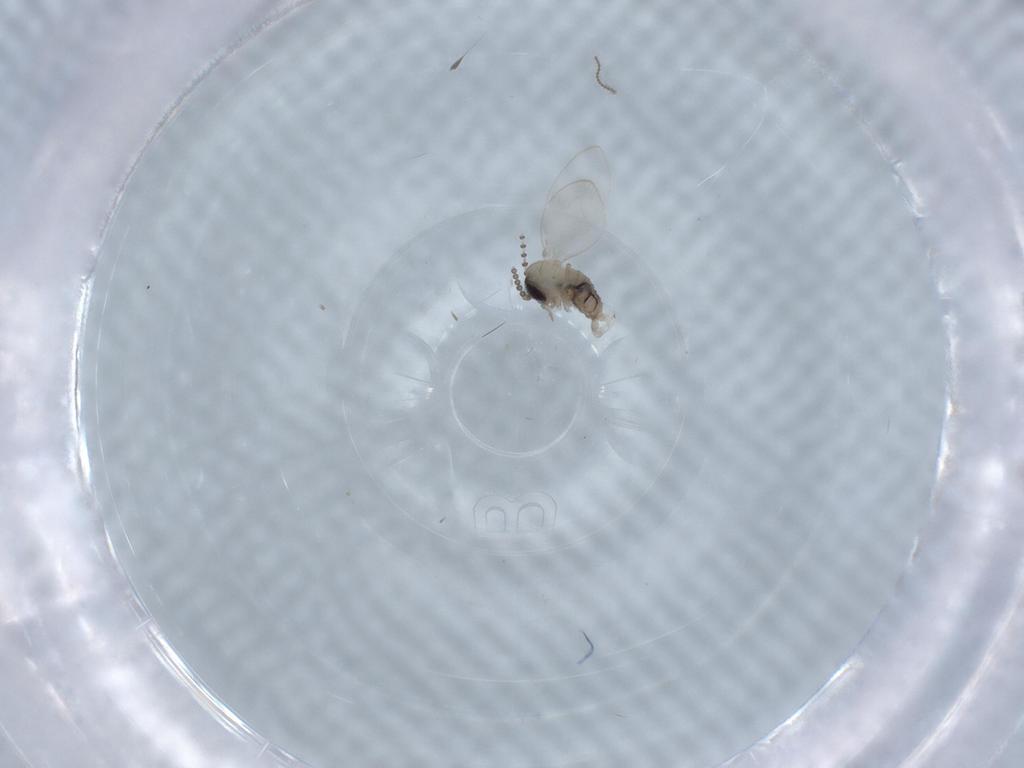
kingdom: Animalia
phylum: Arthropoda
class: Insecta
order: Diptera
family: Psychodidae
